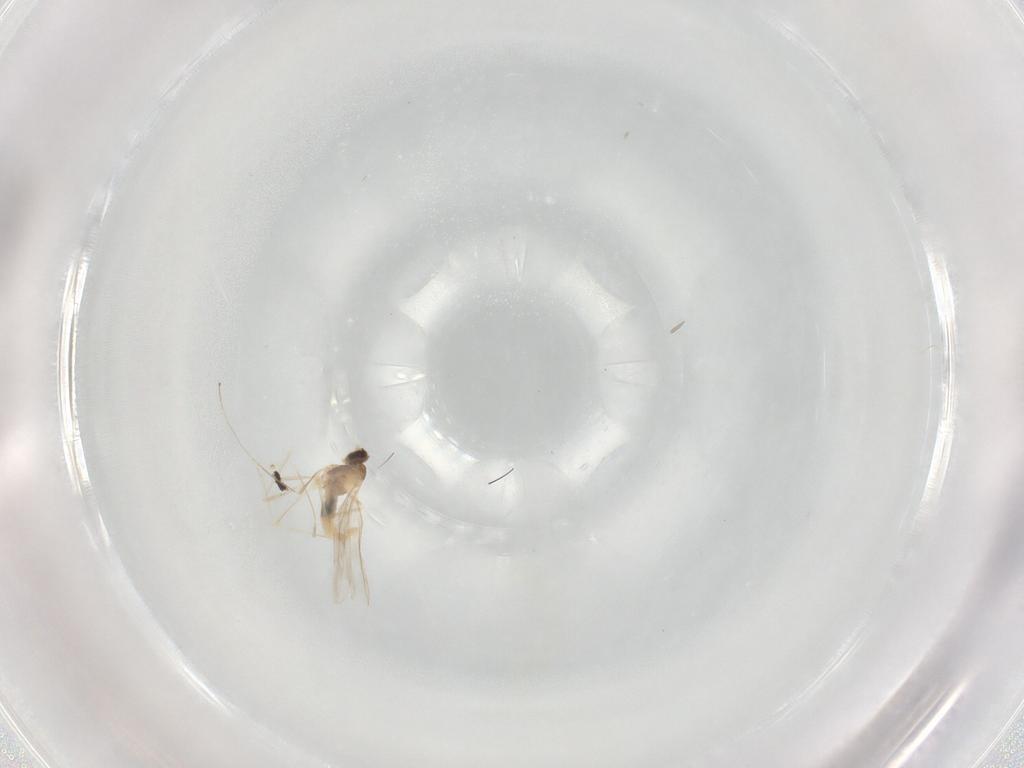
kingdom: Animalia
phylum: Arthropoda
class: Insecta
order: Diptera
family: Cecidomyiidae
